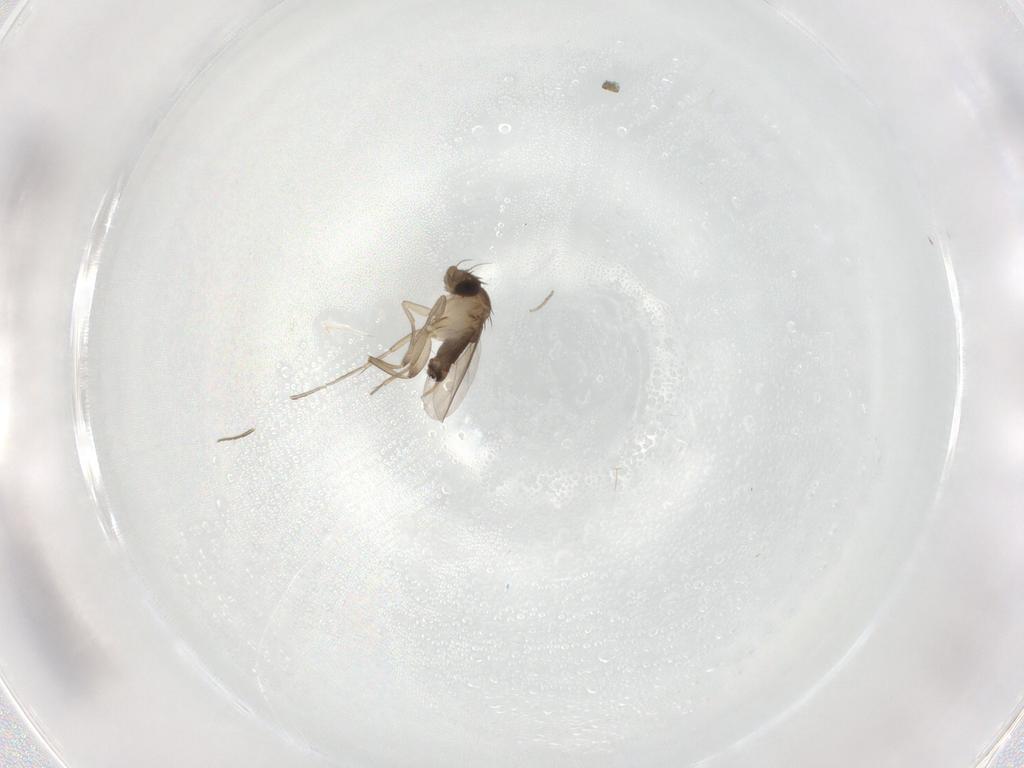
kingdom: Animalia
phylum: Arthropoda
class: Insecta
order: Diptera
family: Phoridae
